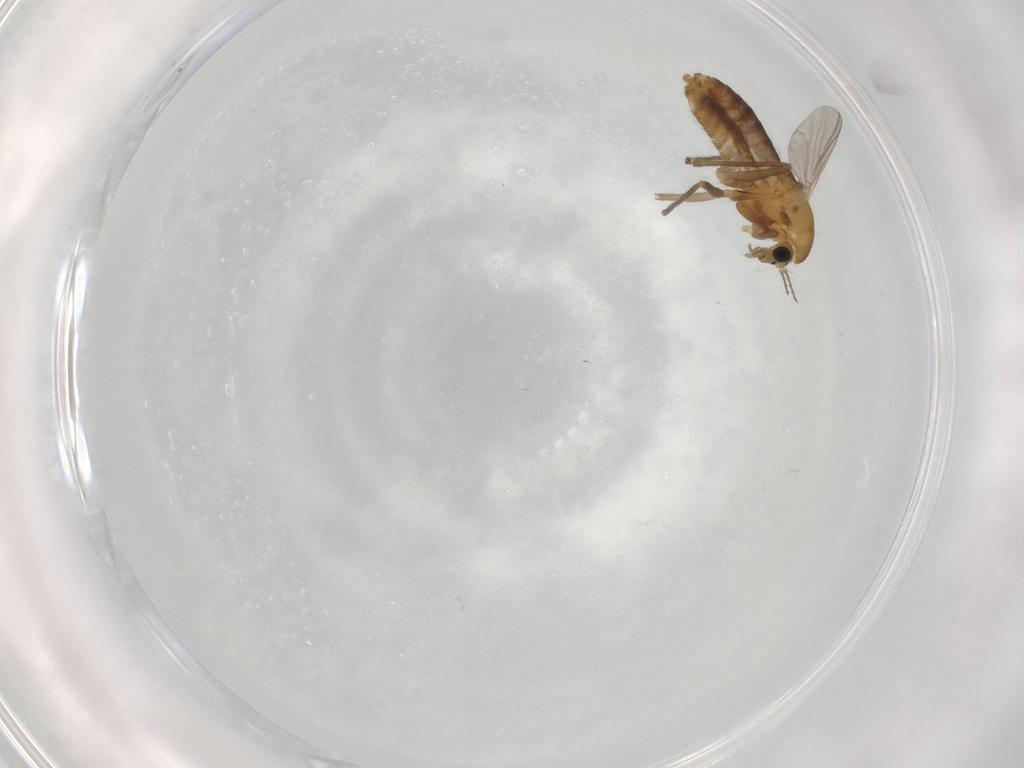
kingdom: Animalia
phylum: Arthropoda
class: Insecta
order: Diptera
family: Chironomidae
